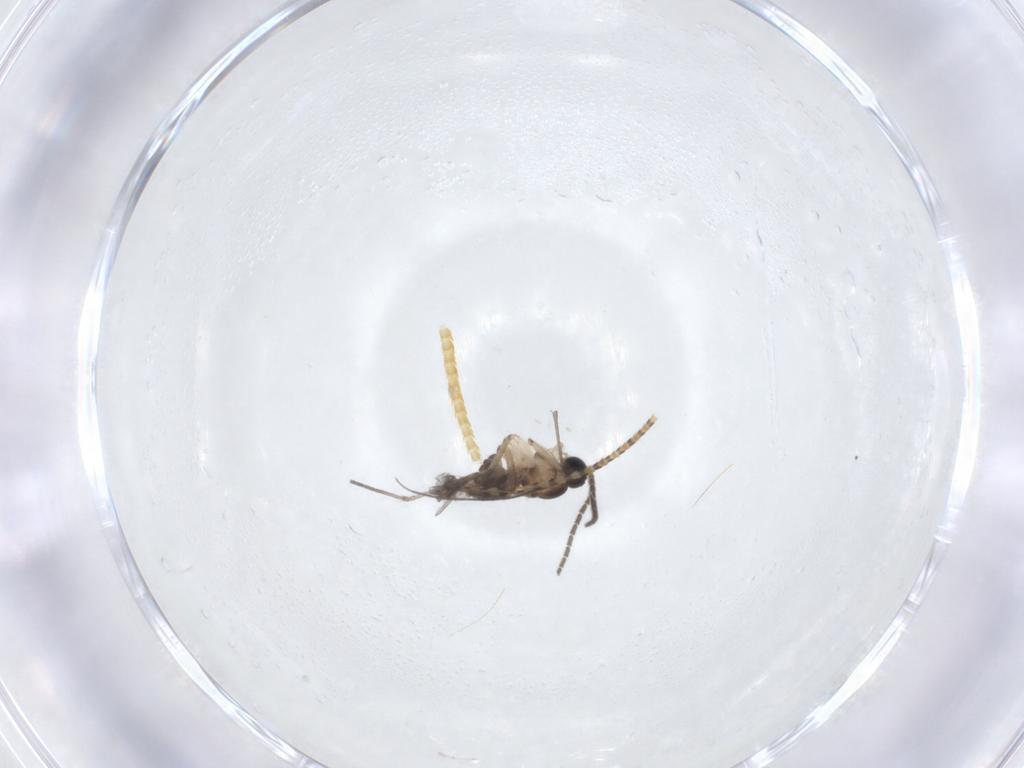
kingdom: Animalia
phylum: Arthropoda
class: Insecta
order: Diptera
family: Sciaridae
